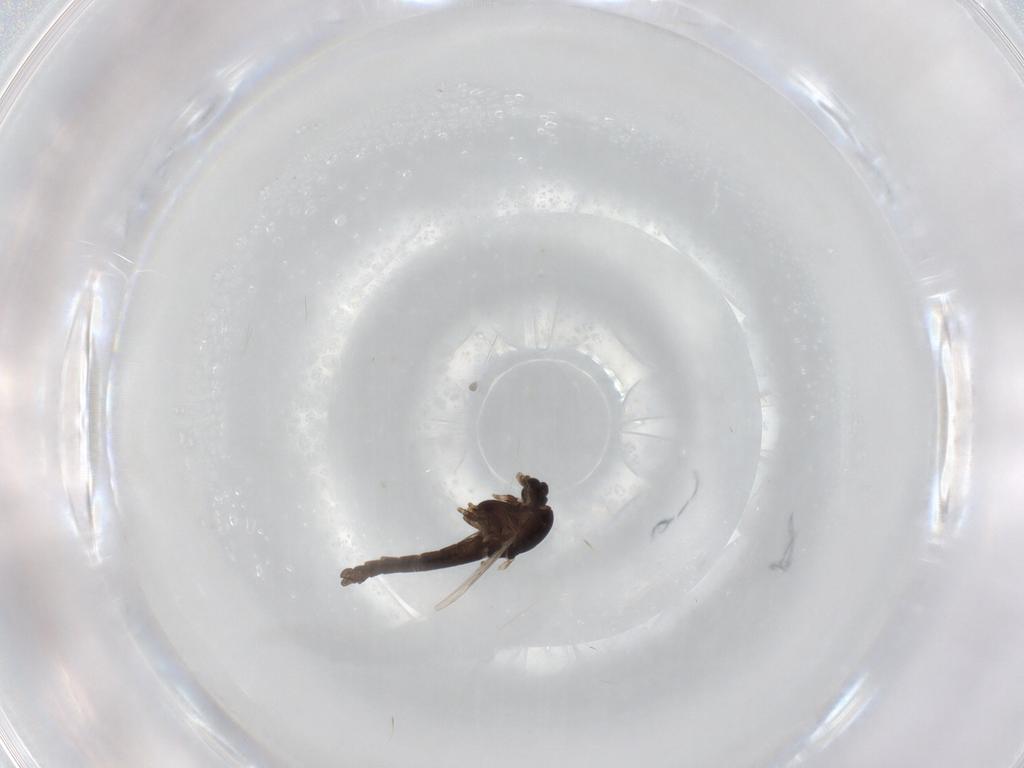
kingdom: Animalia
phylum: Arthropoda
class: Insecta
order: Diptera
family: Chironomidae
